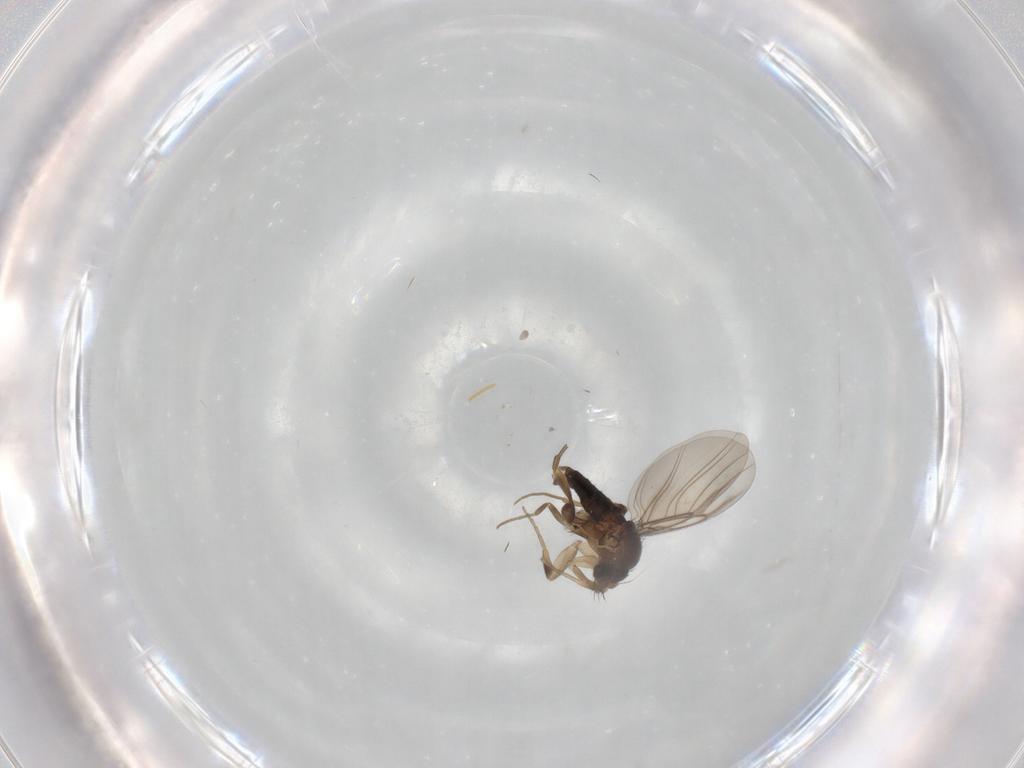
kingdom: Animalia
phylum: Arthropoda
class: Insecta
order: Diptera
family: Phoridae
